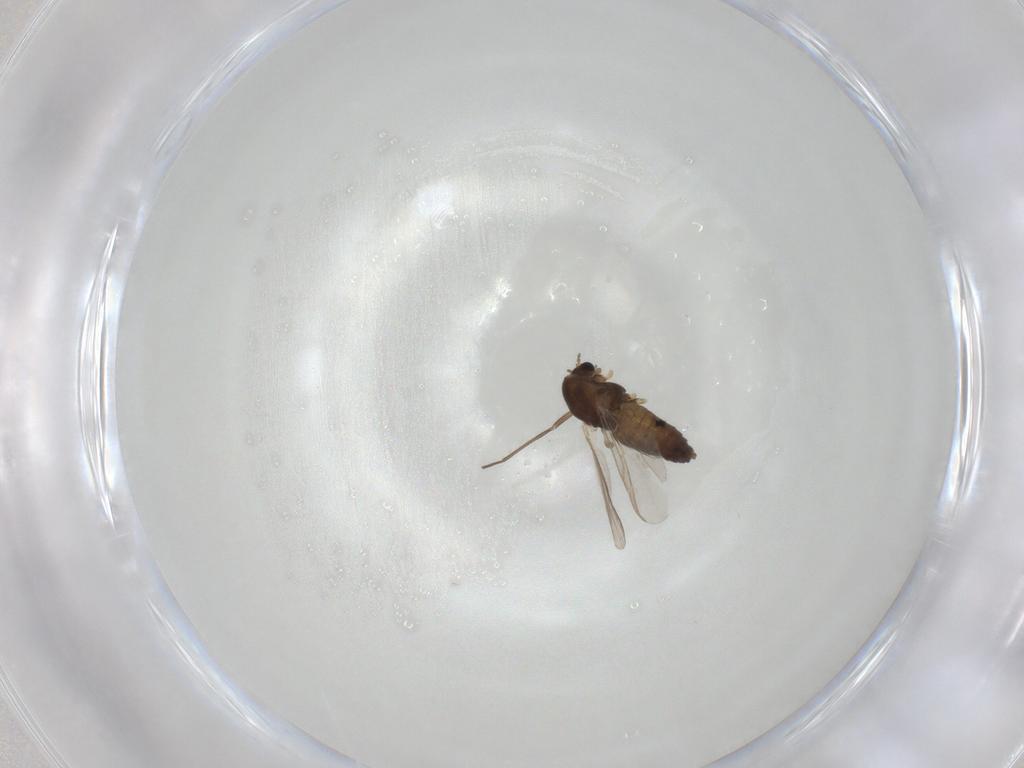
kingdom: Animalia
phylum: Arthropoda
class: Insecta
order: Diptera
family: Chironomidae
